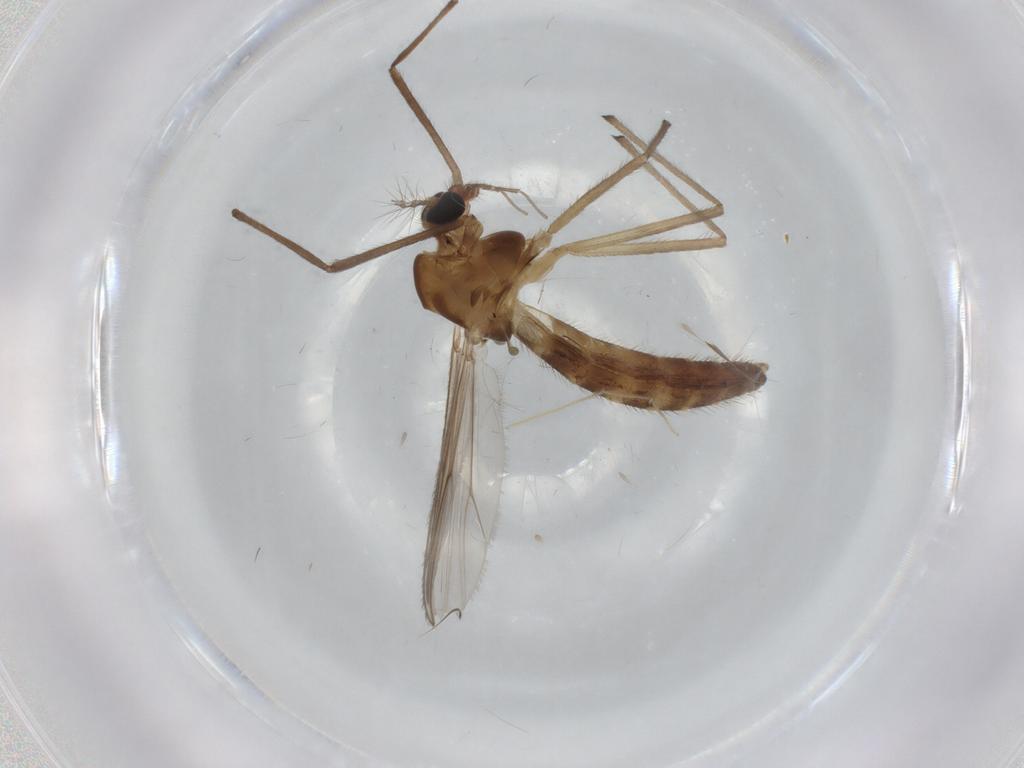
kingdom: Animalia
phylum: Arthropoda
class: Insecta
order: Diptera
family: Chironomidae
